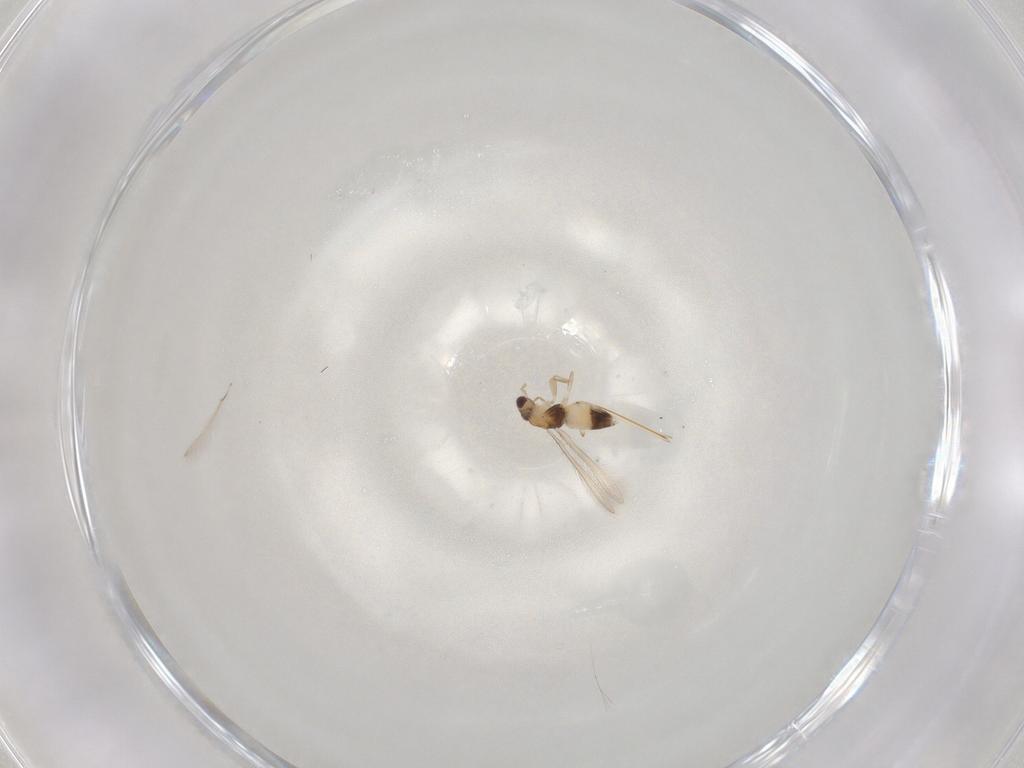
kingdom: Animalia
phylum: Arthropoda
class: Insecta
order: Hymenoptera
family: Mymaridae
